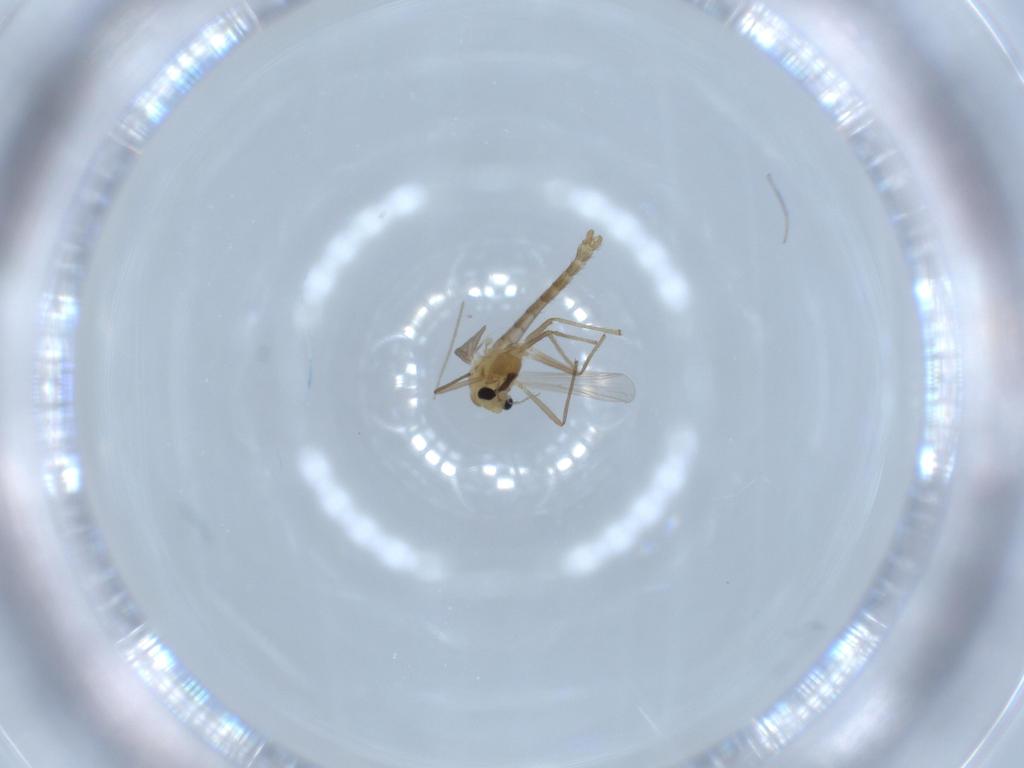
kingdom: Animalia
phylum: Arthropoda
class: Insecta
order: Diptera
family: Chironomidae
